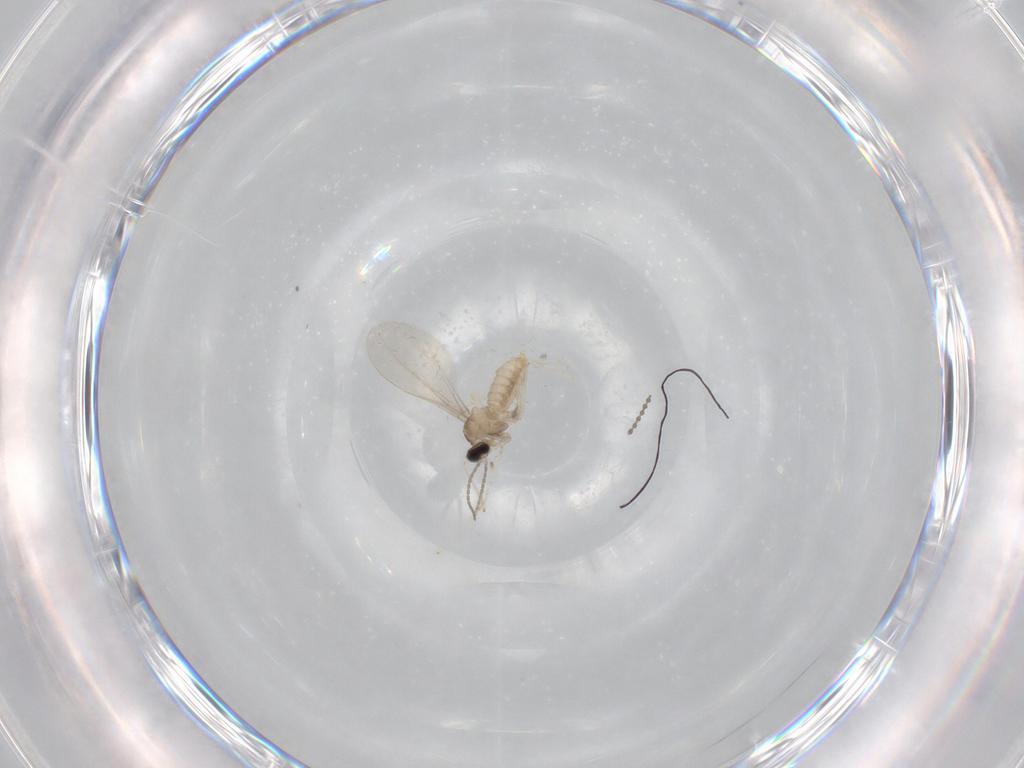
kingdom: Animalia
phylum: Arthropoda
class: Insecta
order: Diptera
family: Cecidomyiidae
